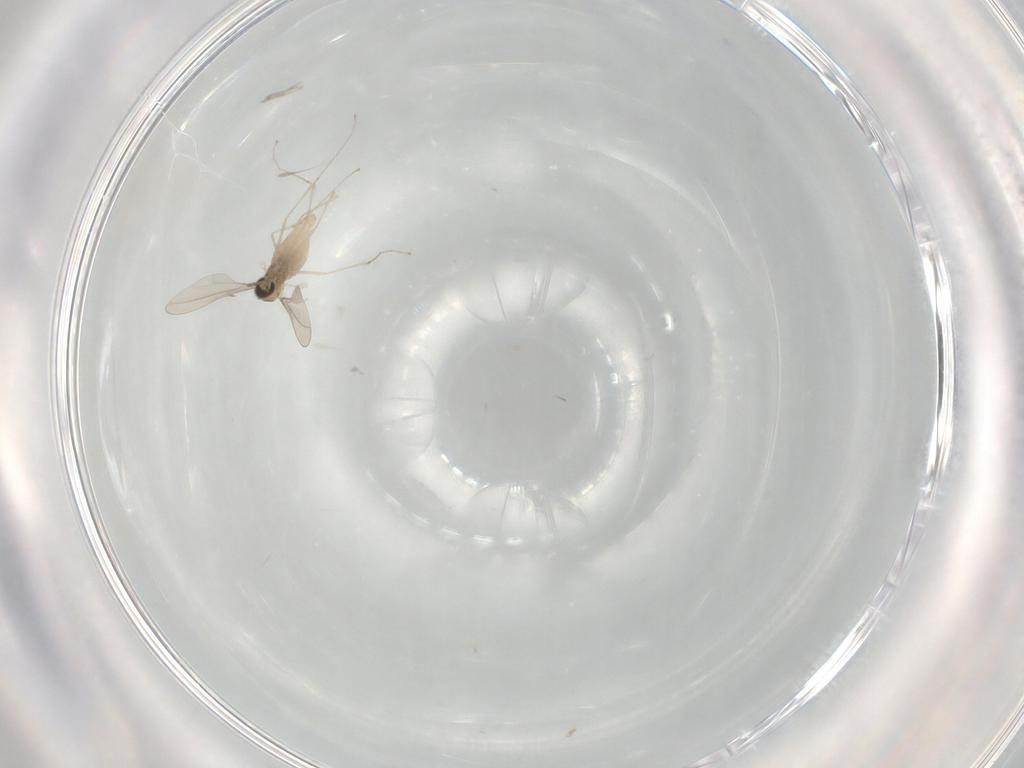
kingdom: Animalia
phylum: Arthropoda
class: Insecta
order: Diptera
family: Cecidomyiidae
